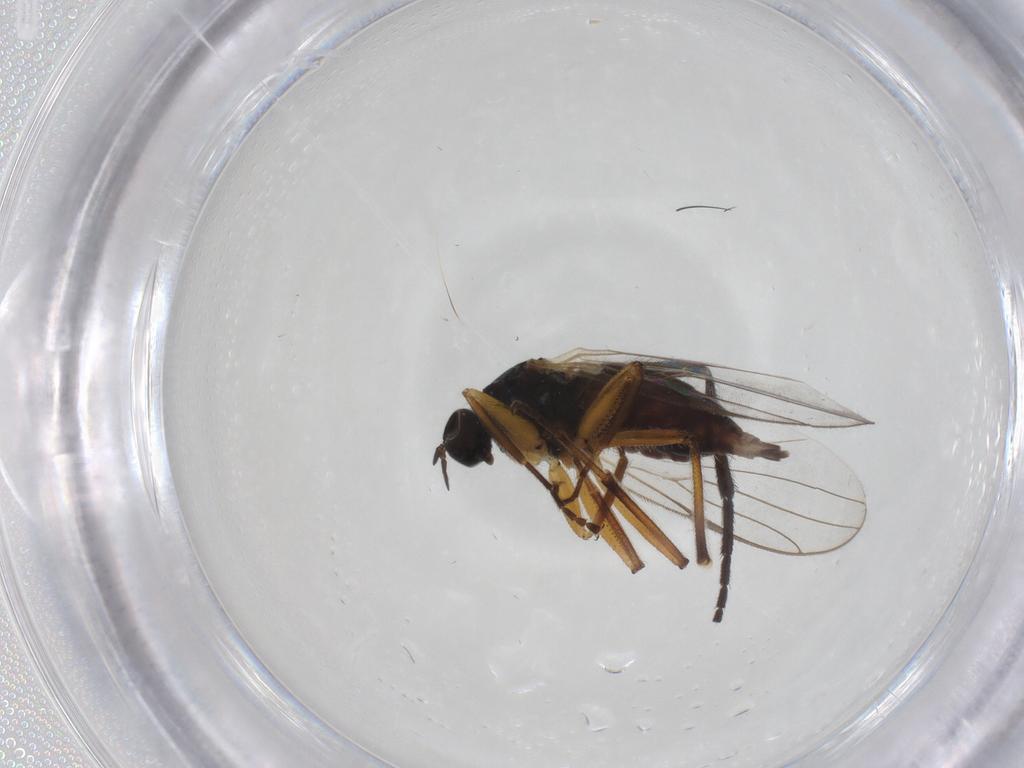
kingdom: Animalia
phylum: Arthropoda
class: Insecta
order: Diptera
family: Hybotidae
